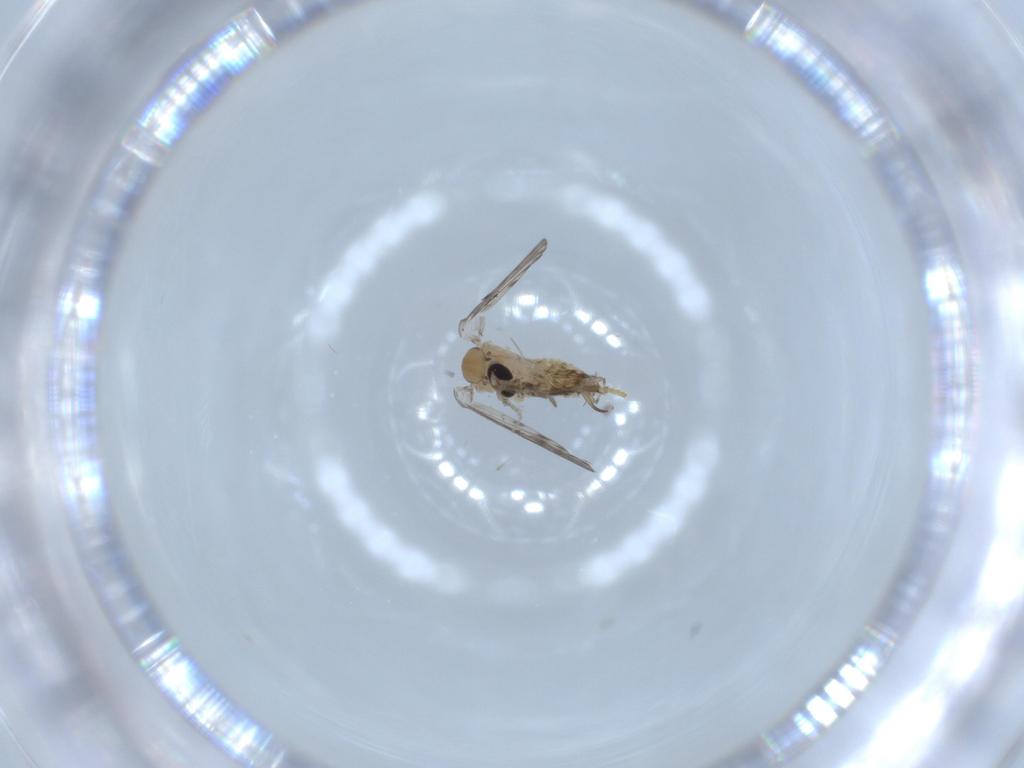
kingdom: Animalia
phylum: Arthropoda
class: Insecta
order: Diptera
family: Psychodidae
